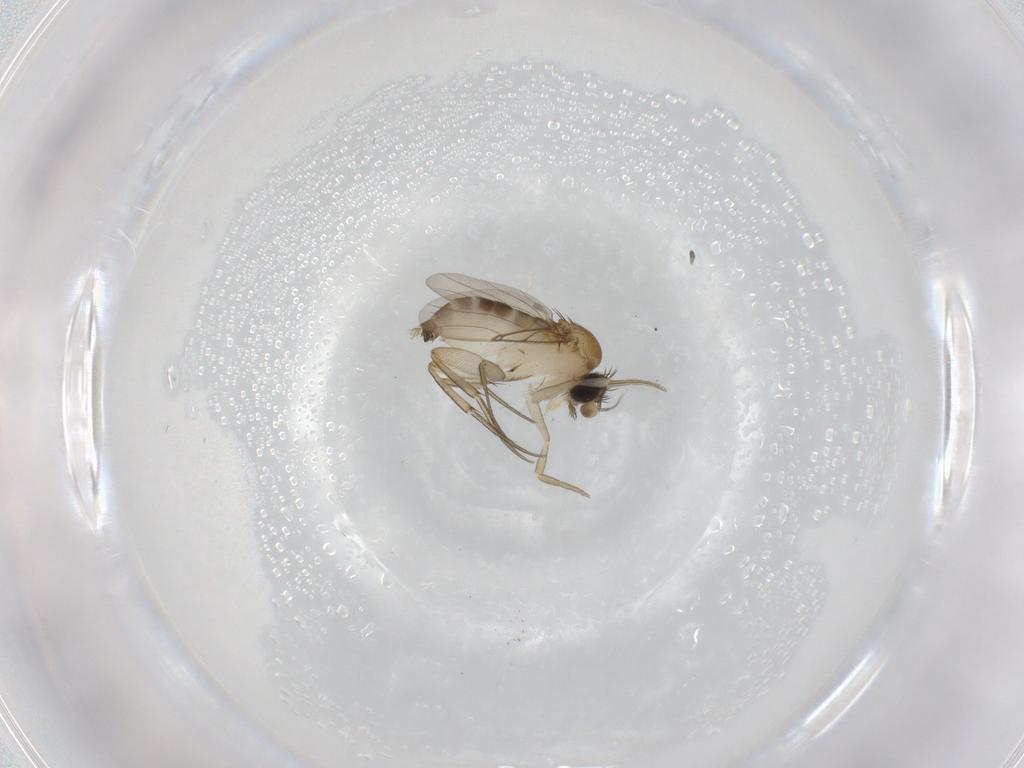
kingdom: Animalia
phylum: Arthropoda
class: Insecta
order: Diptera
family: Phoridae
